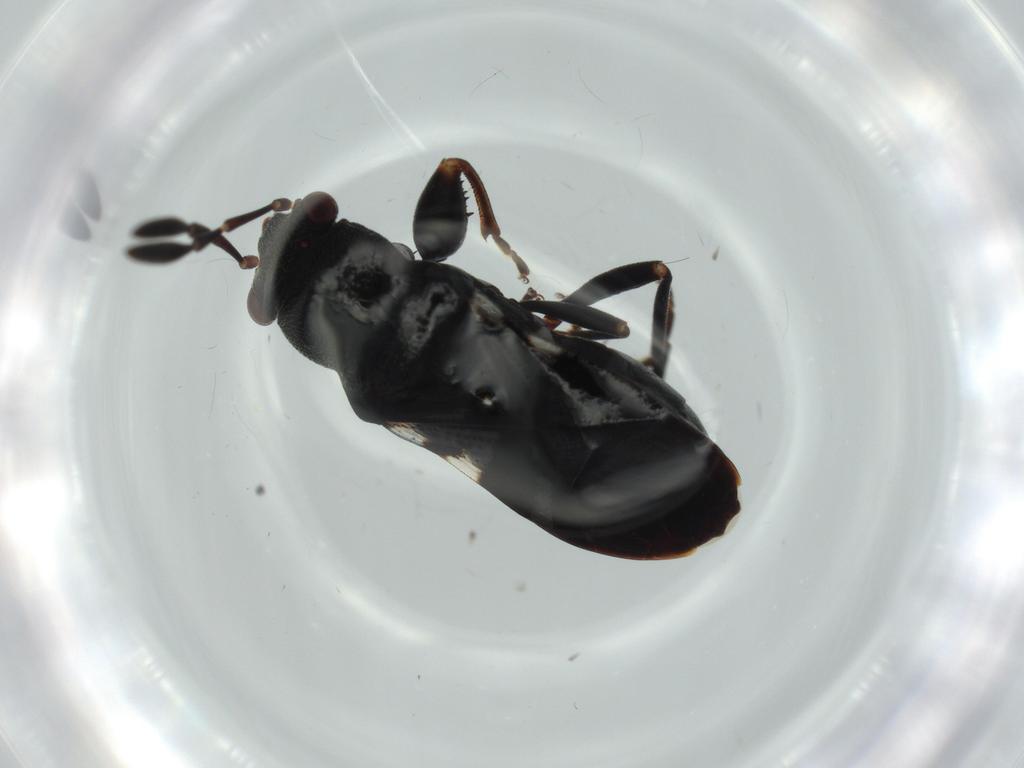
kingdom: Animalia
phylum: Arthropoda
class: Insecta
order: Hemiptera
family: Rhyparochromidae
